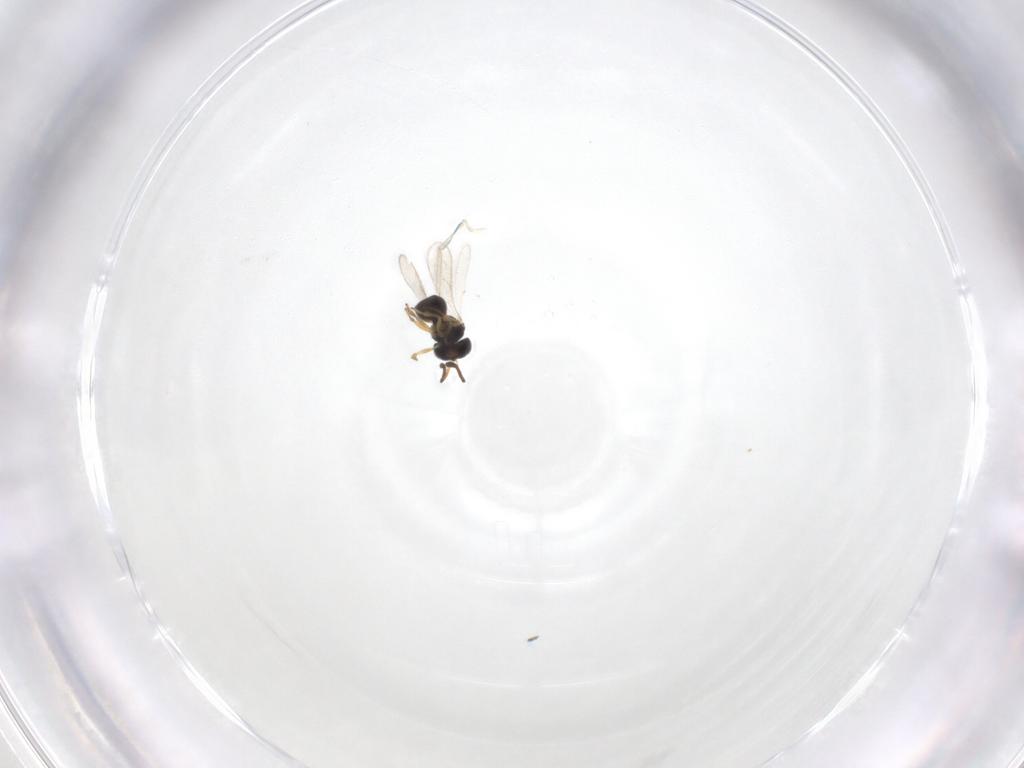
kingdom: Animalia
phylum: Arthropoda
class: Insecta
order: Hymenoptera
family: Scelionidae
